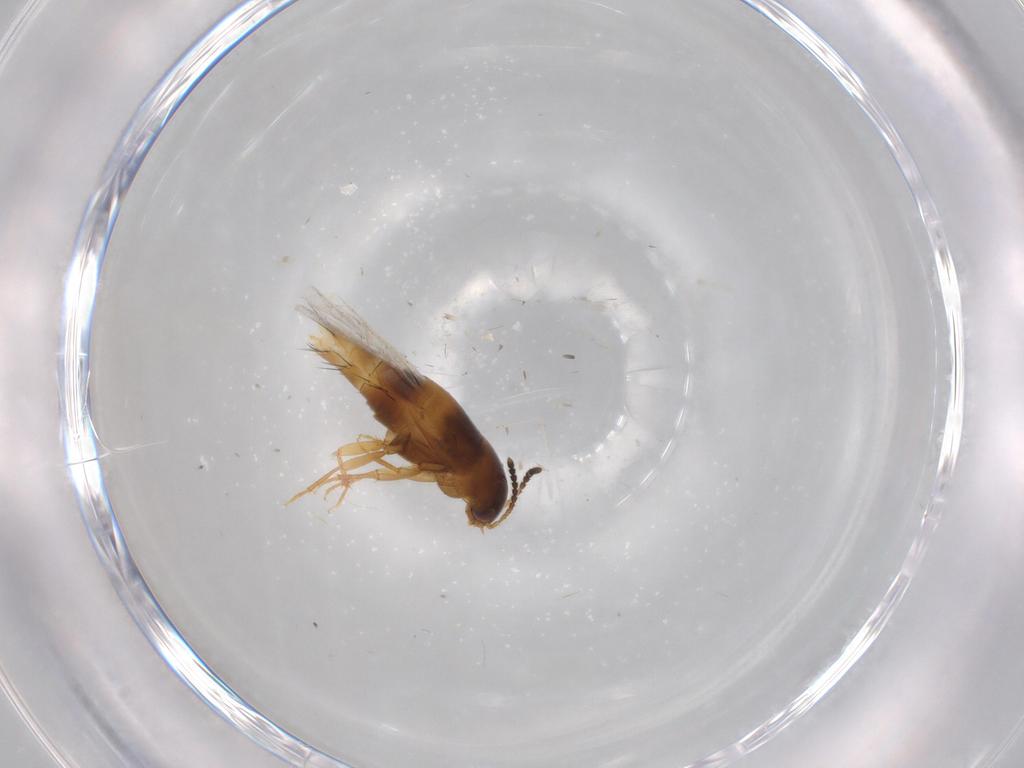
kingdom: Animalia
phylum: Arthropoda
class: Insecta
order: Coleoptera
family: Staphylinidae
